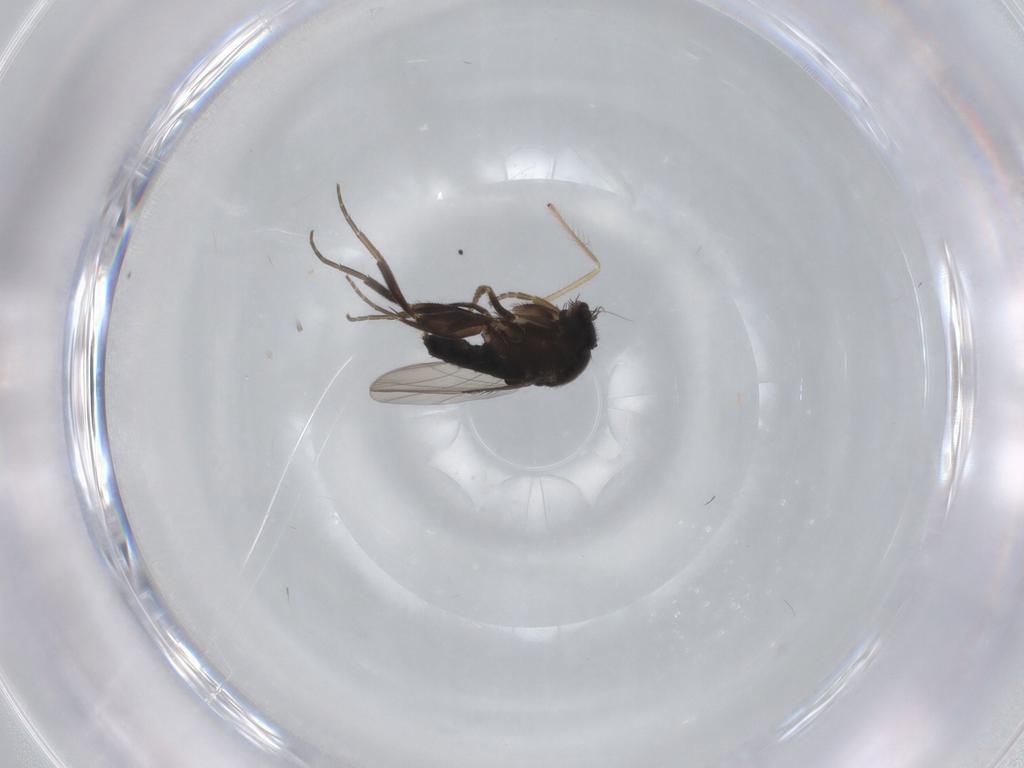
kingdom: Animalia
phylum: Arthropoda
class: Insecta
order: Diptera
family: Phoridae
